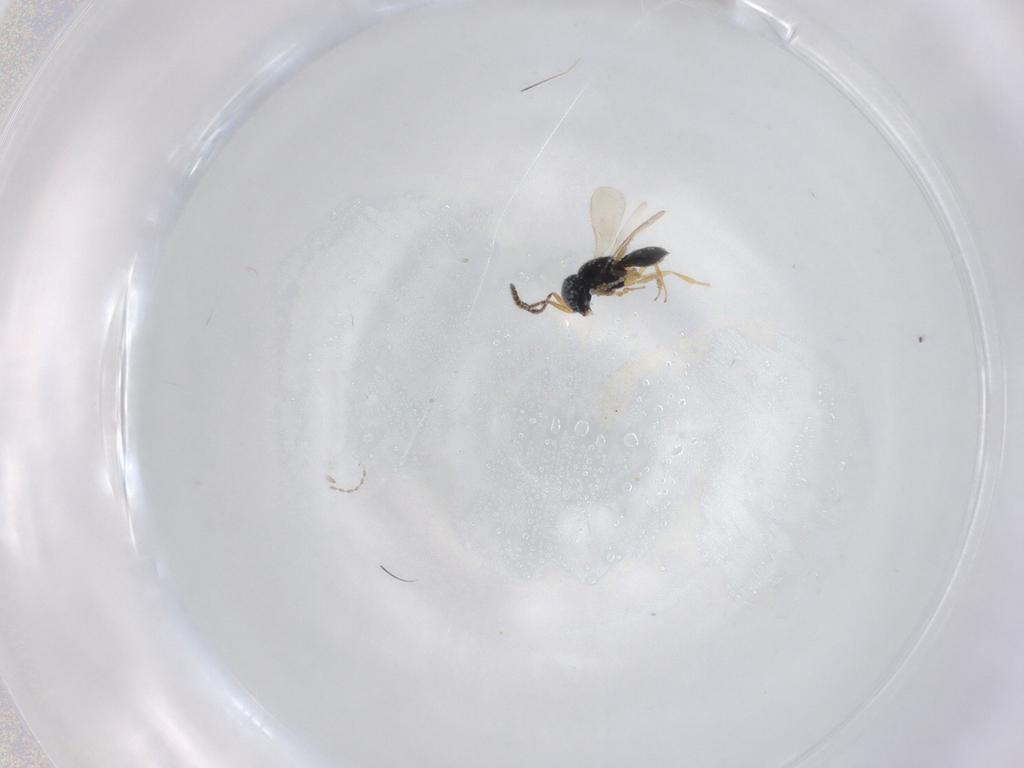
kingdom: Animalia
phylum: Arthropoda
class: Insecta
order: Hymenoptera
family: Scelionidae
